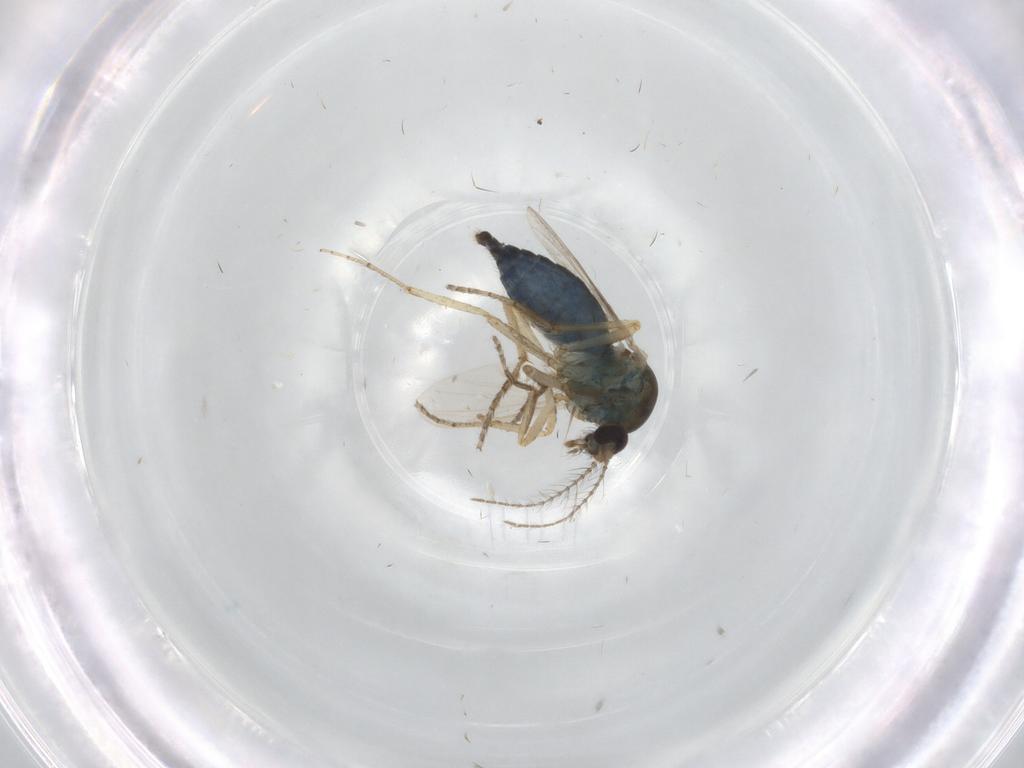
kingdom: Animalia
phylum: Arthropoda
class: Insecta
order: Diptera
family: Ceratopogonidae
